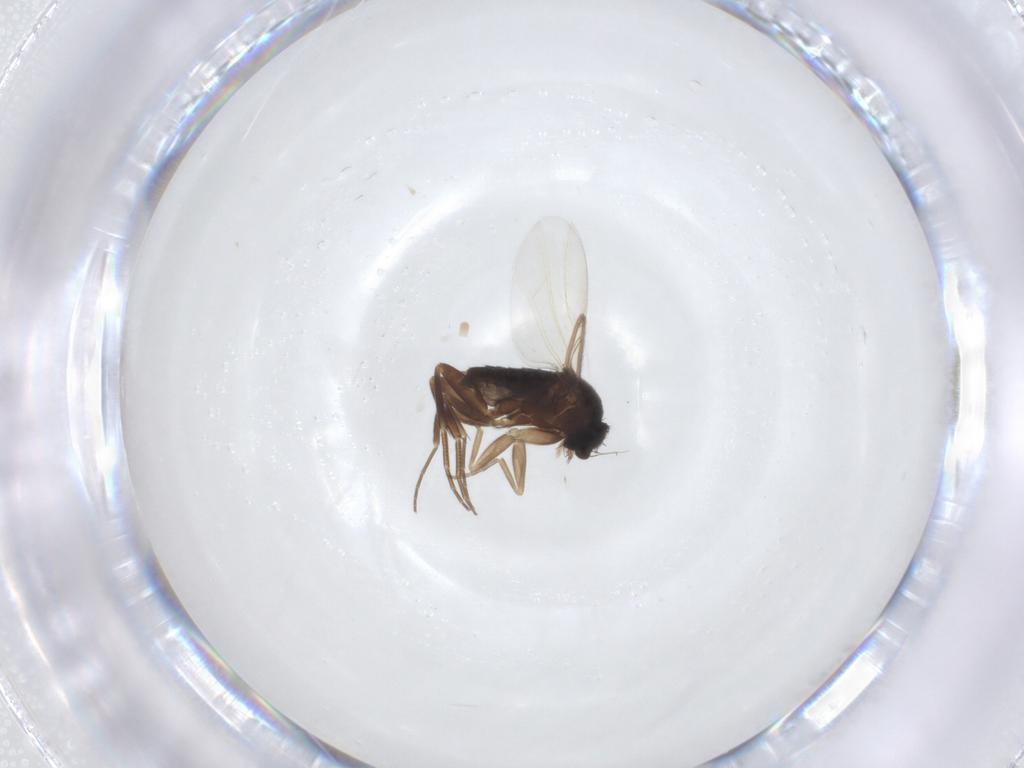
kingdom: Animalia
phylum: Arthropoda
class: Insecta
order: Diptera
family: Phoridae
